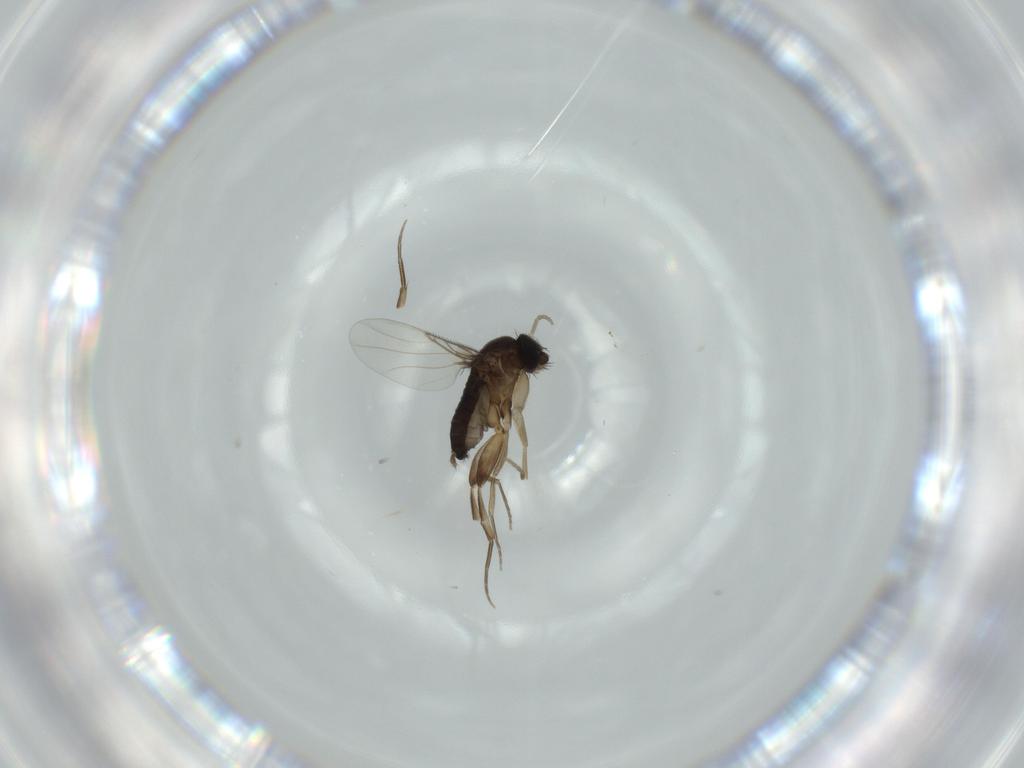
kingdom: Animalia
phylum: Arthropoda
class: Insecta
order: Diptera
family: Phoridae
